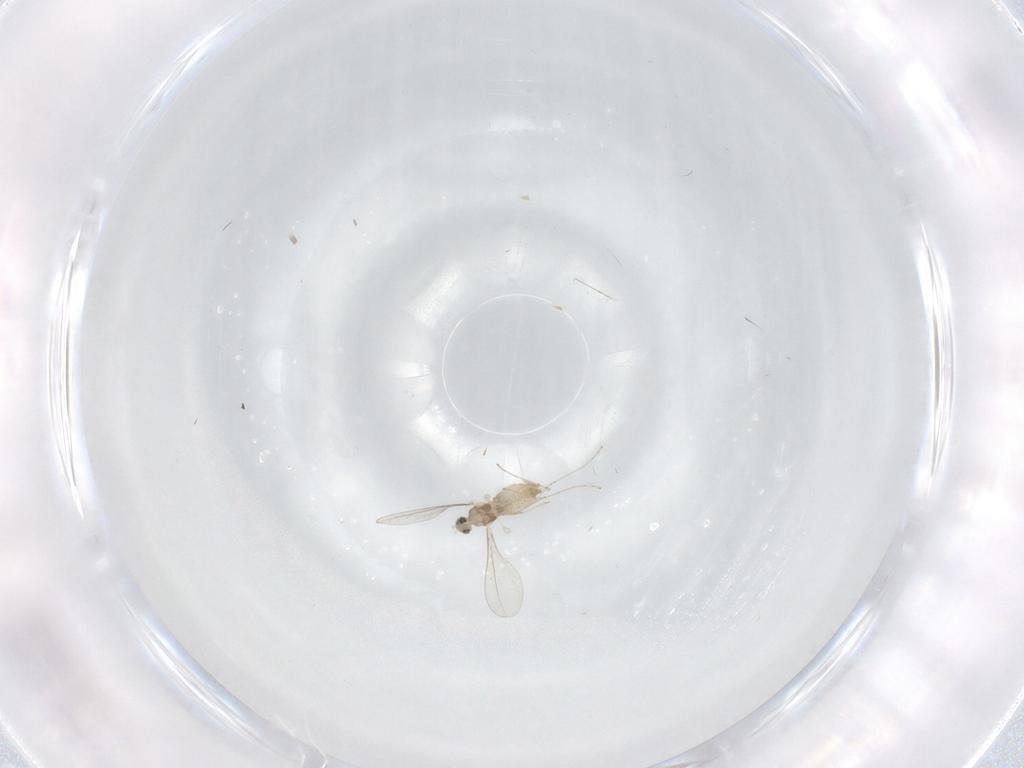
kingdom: Animalia
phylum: Arthropoda
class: Insecta
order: Diptera
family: Cecidomyiidae
